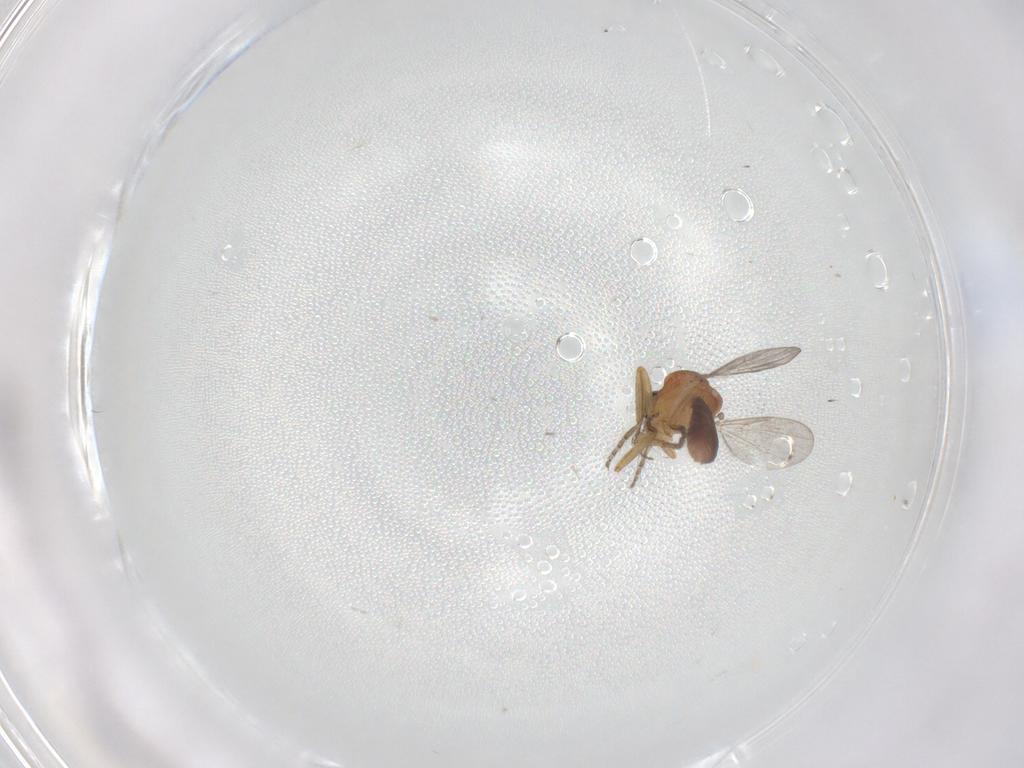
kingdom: Animalia
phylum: Arthropoda
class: Insecta
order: Diptera
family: Ceratopogonidae
